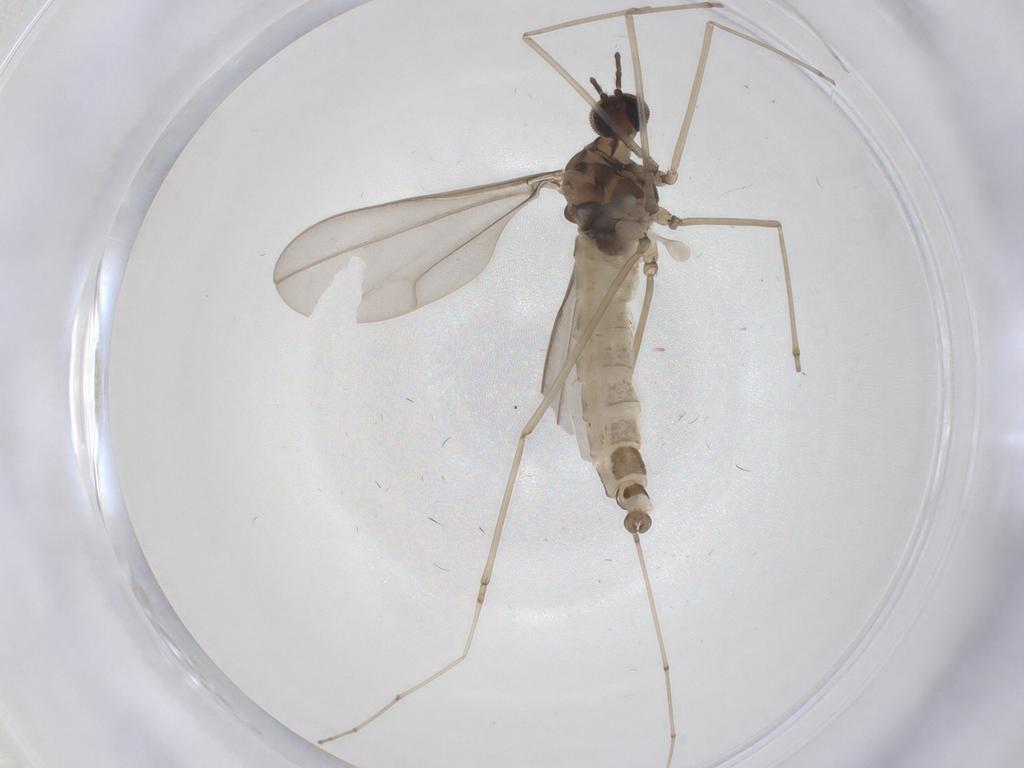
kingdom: Animalia
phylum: Arthropoda
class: Insecta
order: Diptera
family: Cecidomyiidae
